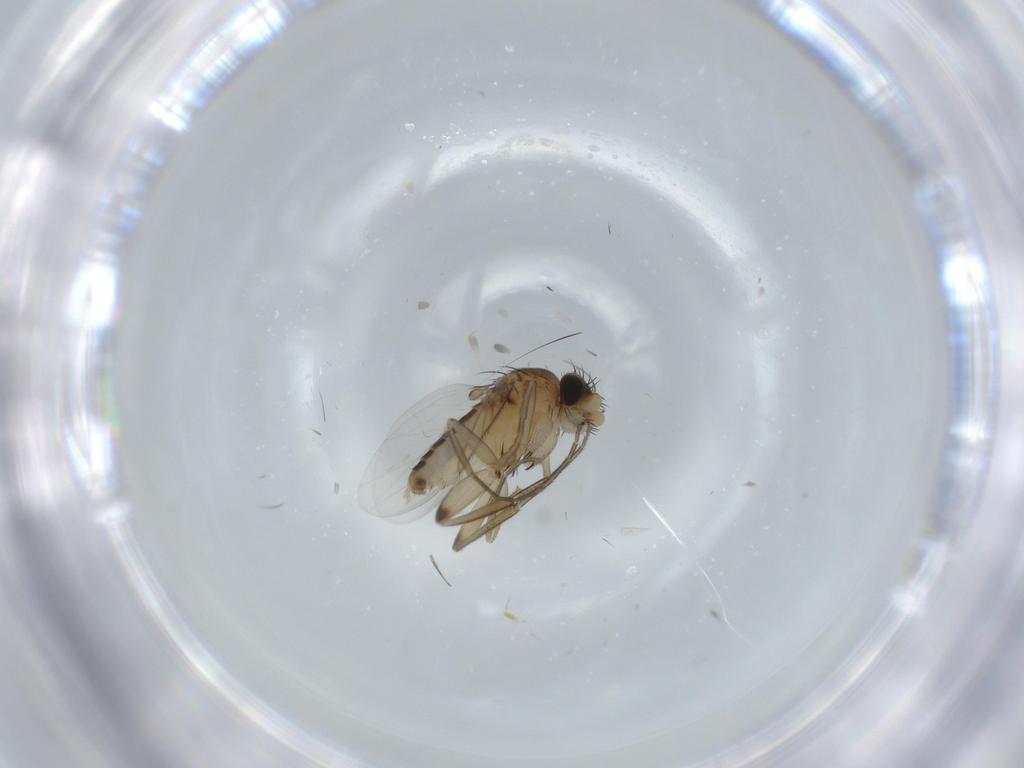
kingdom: Animalia
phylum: Arthropoda
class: Insecta
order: Diptera
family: Phoridae
